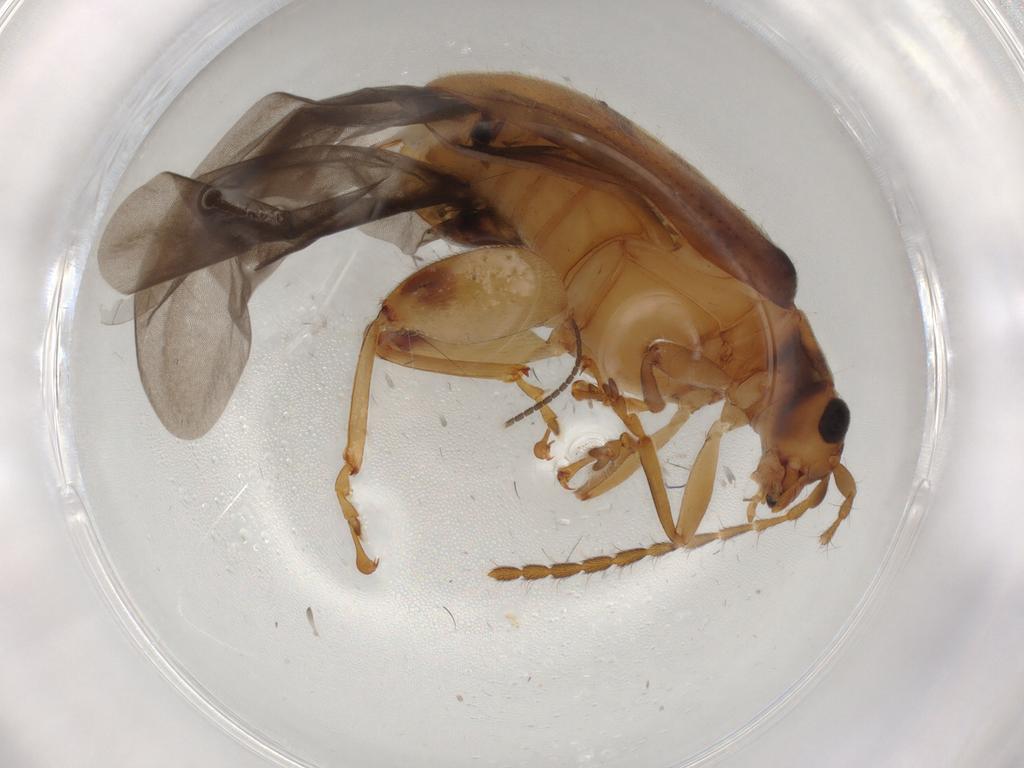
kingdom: Animalia
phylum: Arthropoda
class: Insecta
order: Coleoptera
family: Chrysomelidae
